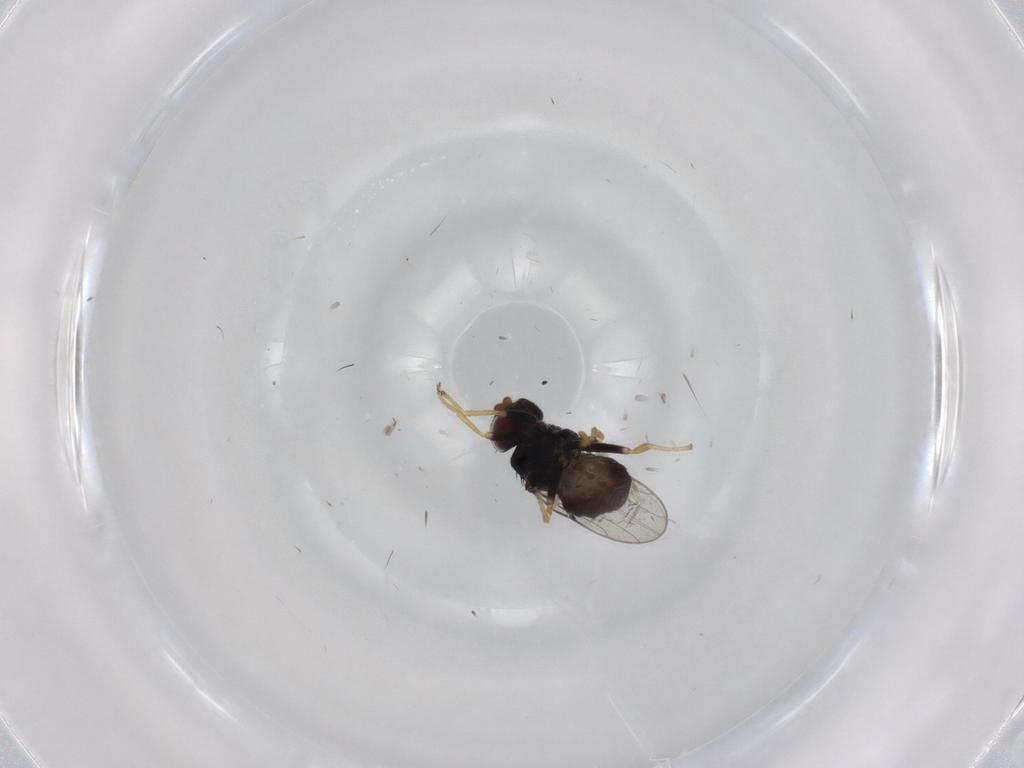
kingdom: Animalia
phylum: Arthropoda
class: Insecta
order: Diptera
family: Chloropidae
